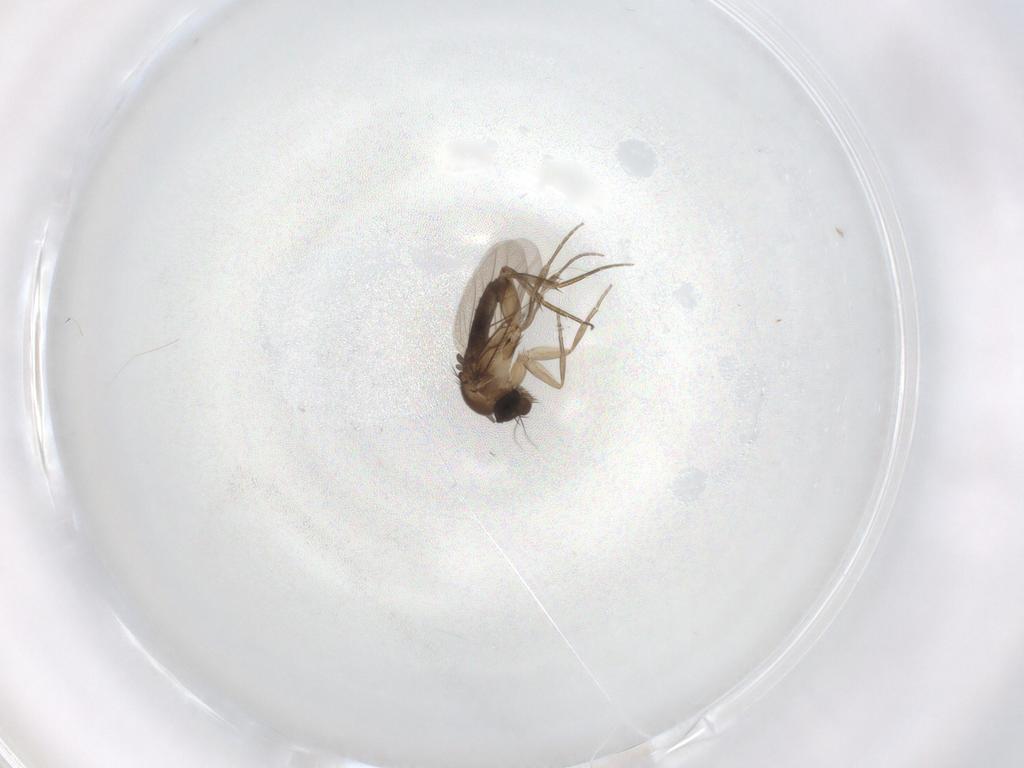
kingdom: Animalia
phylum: Arthropoda
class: Insecta
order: Diptera
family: Phoridae
